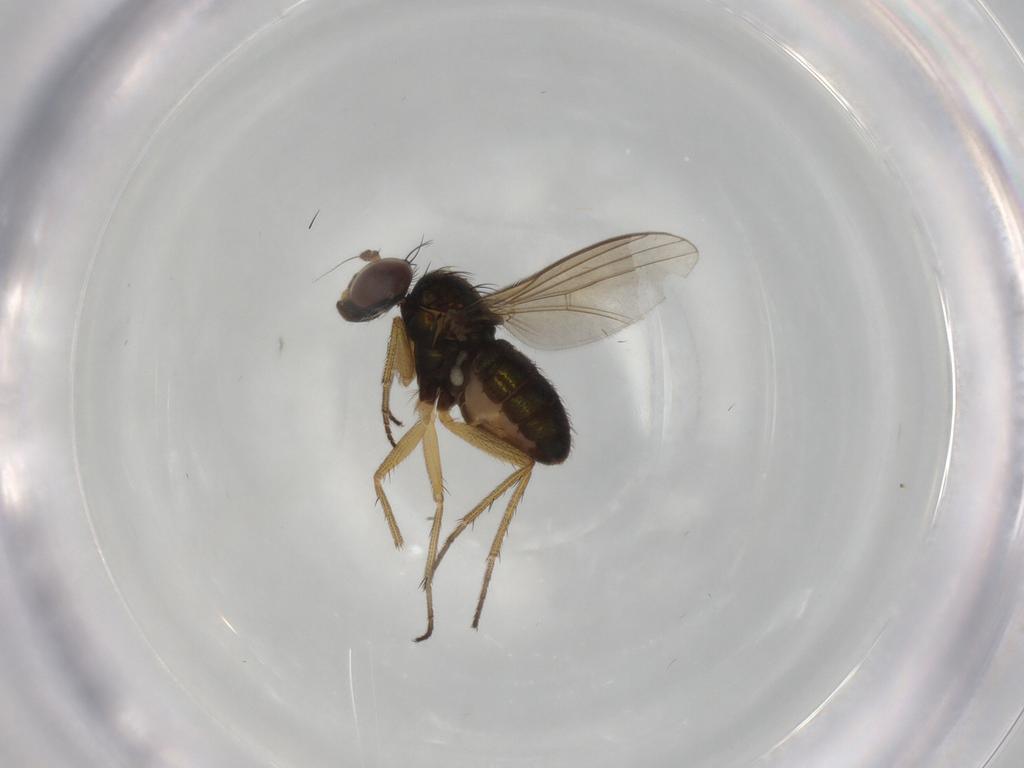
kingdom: Animalia
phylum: Arthropoda
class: Insecta
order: Diptera
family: Dolichopodidae
